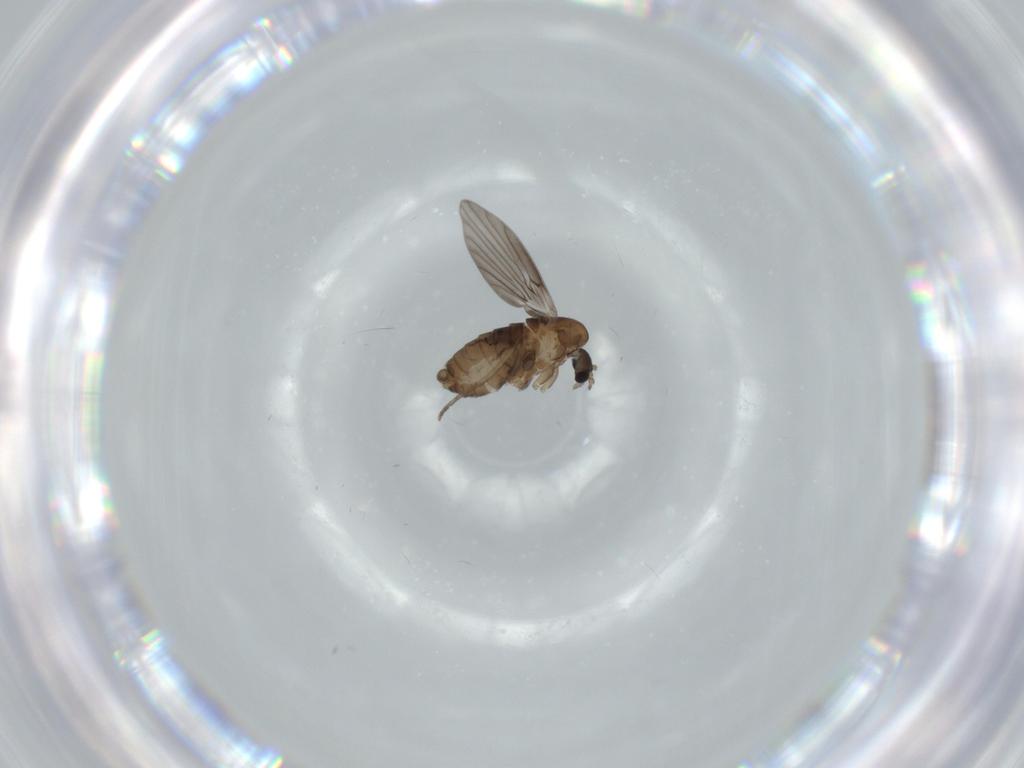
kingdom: Animalia
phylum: Arthropoda
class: Insecta
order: Diptera
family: Psychodidae
